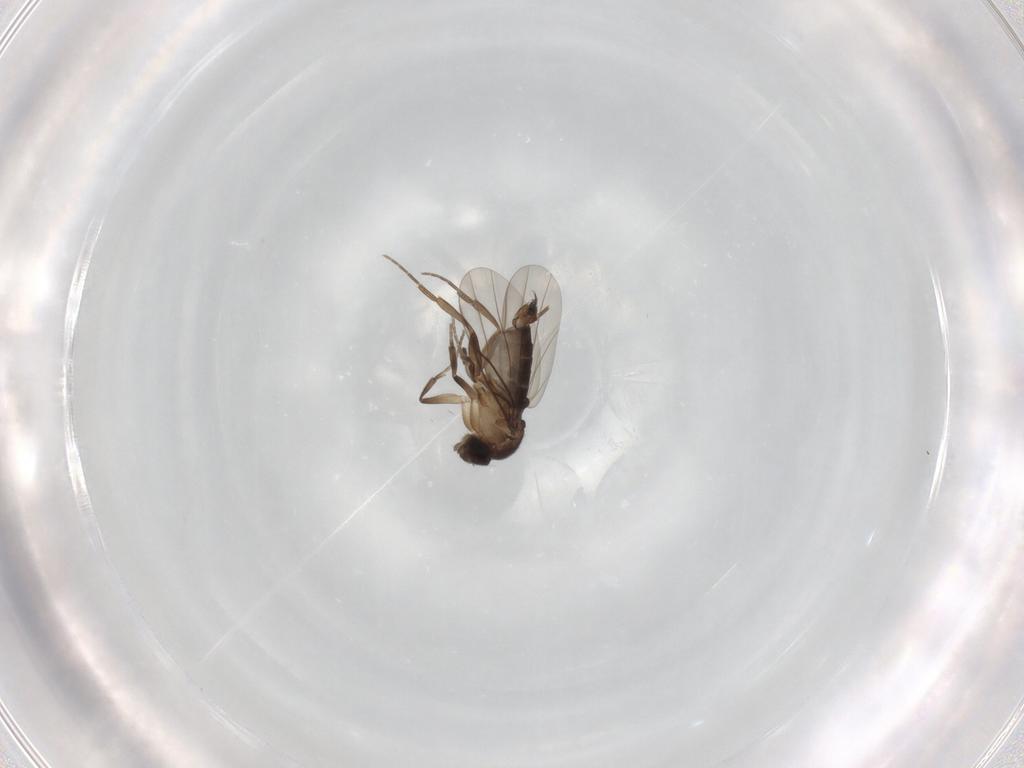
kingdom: Animalia
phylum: Arthropoda
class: Insecta
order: Diptera
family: Phoridae
